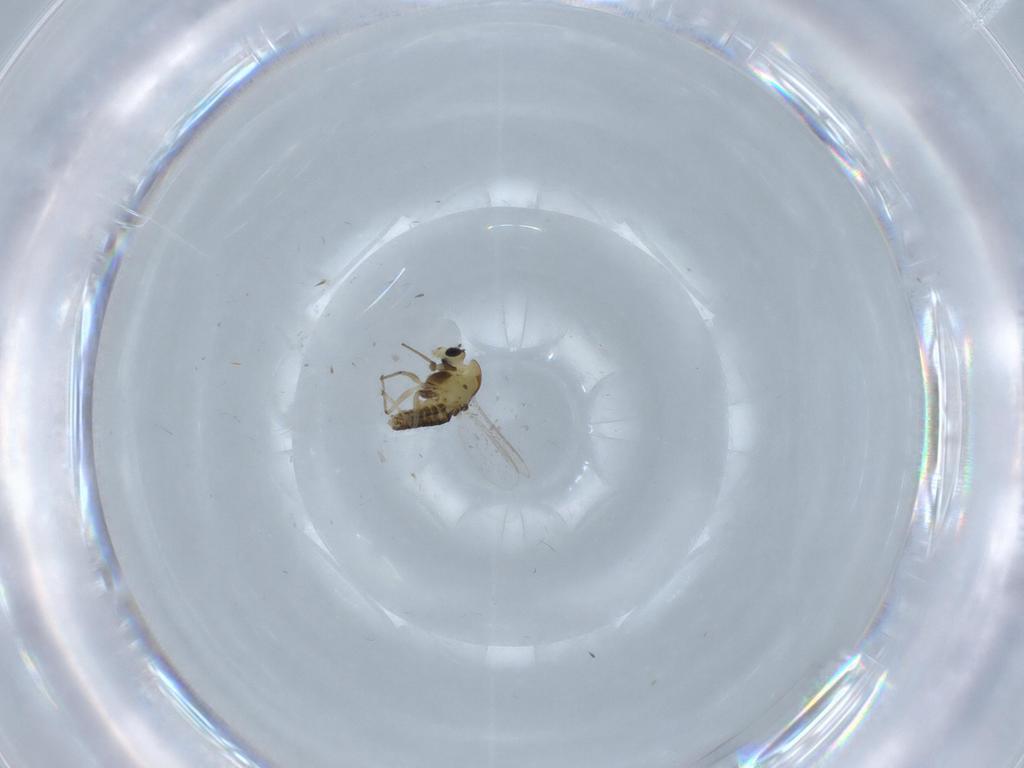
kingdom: Animalia
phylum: Arthropoda
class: Insecta
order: Diptera
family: Chironomidae
